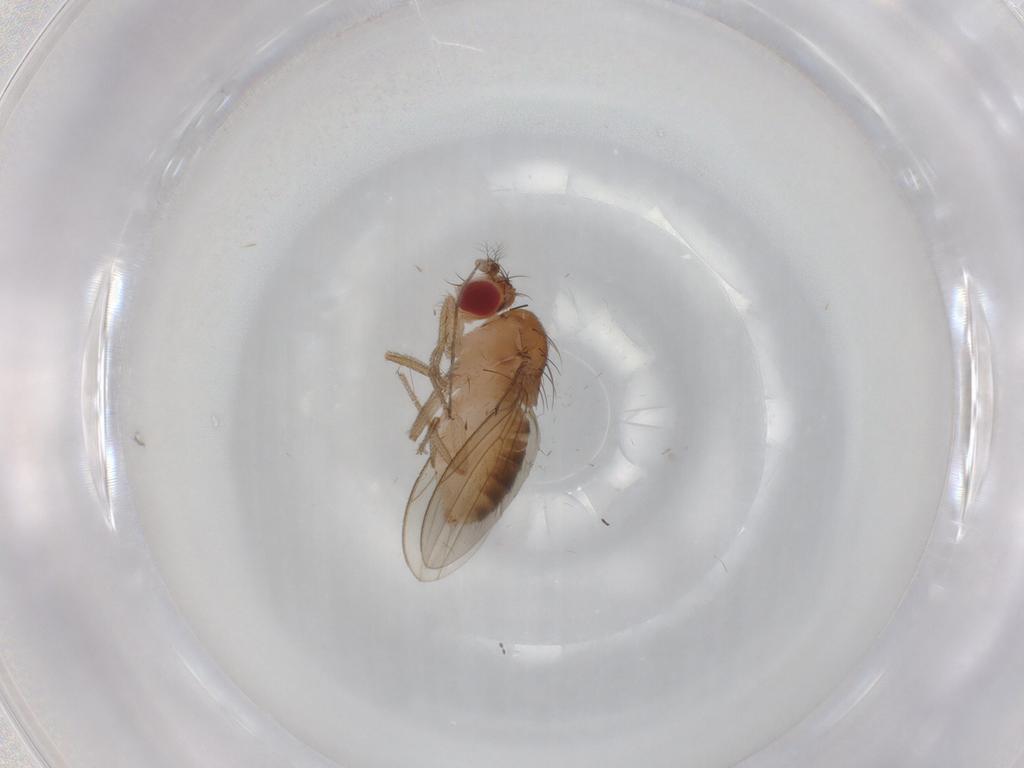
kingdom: Animalia
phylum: Arthropoda
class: Insecta
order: Diptera
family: Drosophilidae
